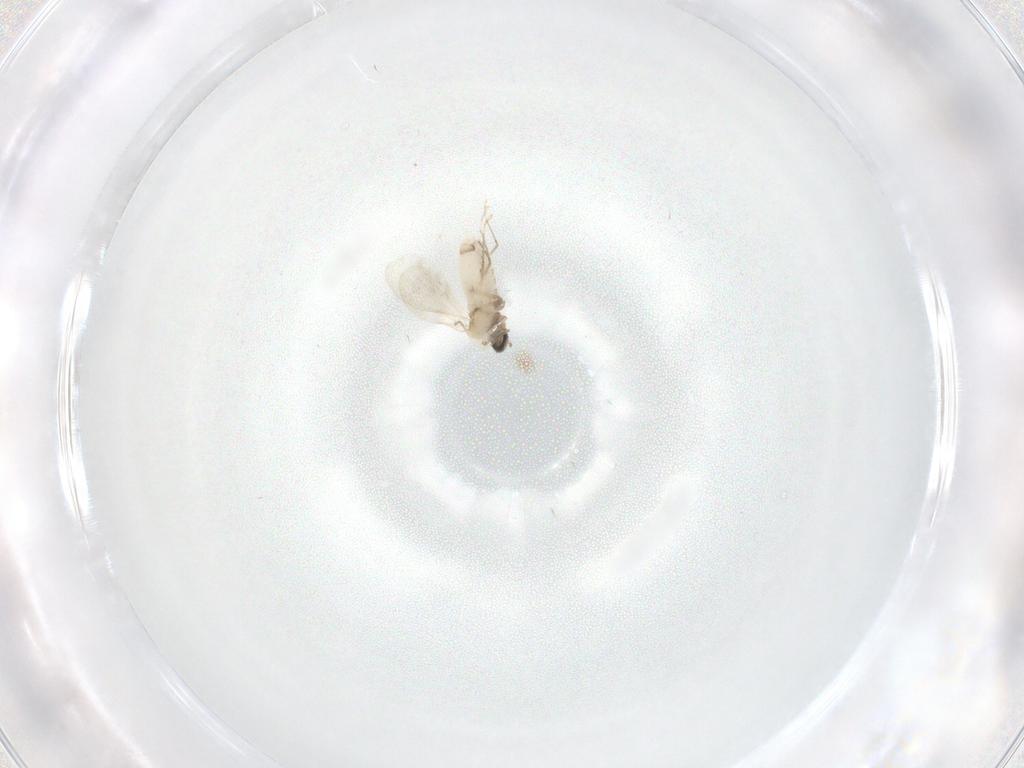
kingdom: Animalia
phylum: Arthropoda
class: Insecta
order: Diptera
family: Cecidomyiidae
